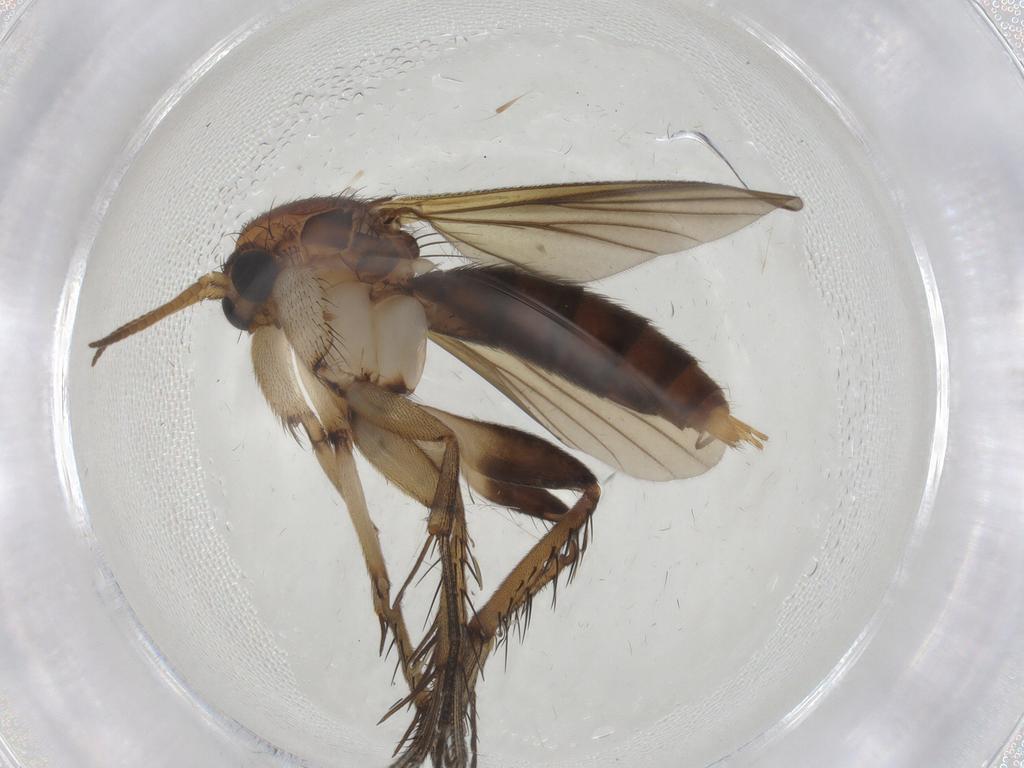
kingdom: Animalia
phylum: Arthropoda
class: Insecta
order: Diptera
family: Sphaeroceridae
